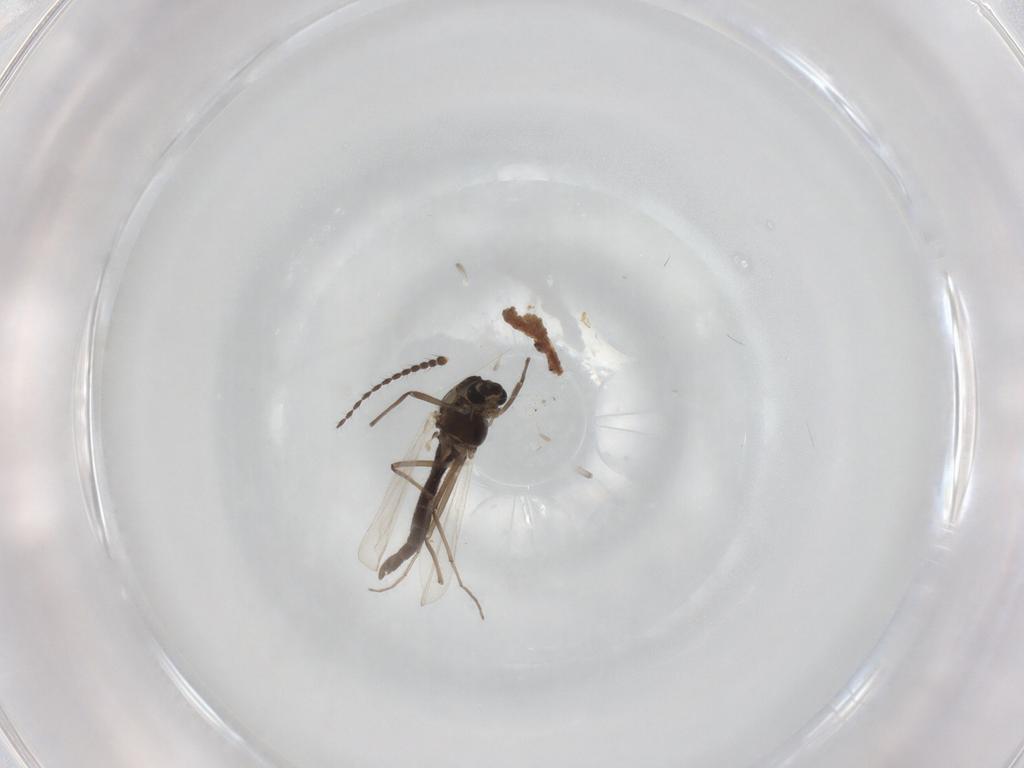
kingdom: Animalia
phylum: Arthropoda
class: Insecta
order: Diptera
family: Chironomidae
